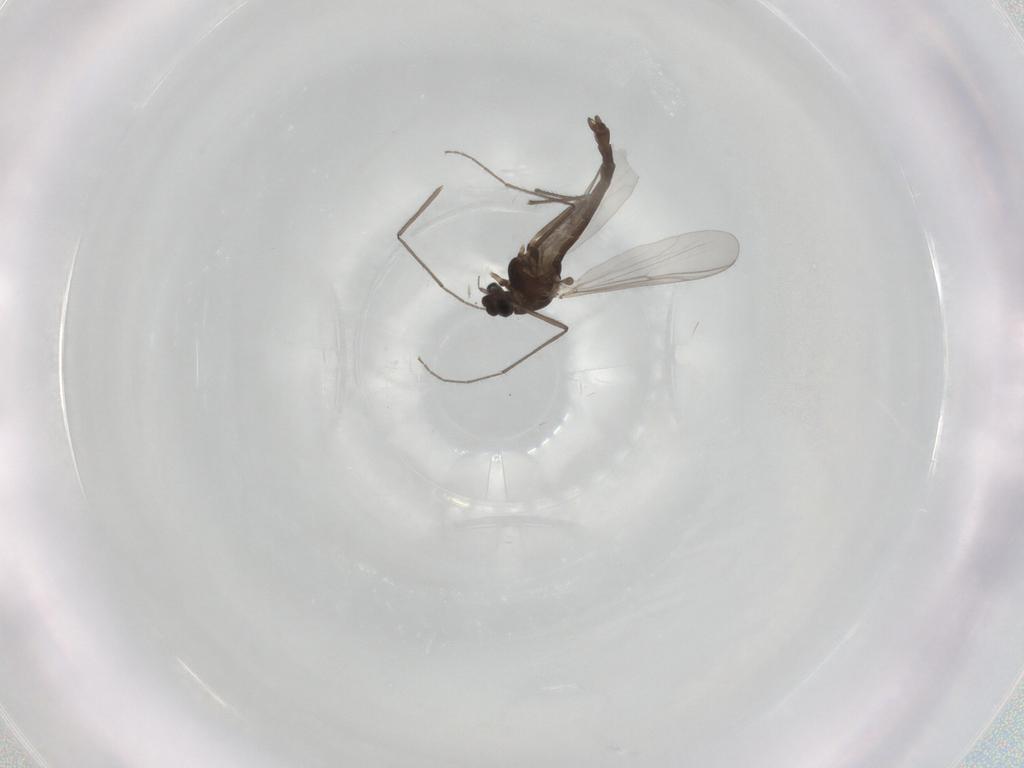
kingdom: Animalia
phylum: Arthropoda
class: Insecta
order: Diptera
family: Chironomidae
